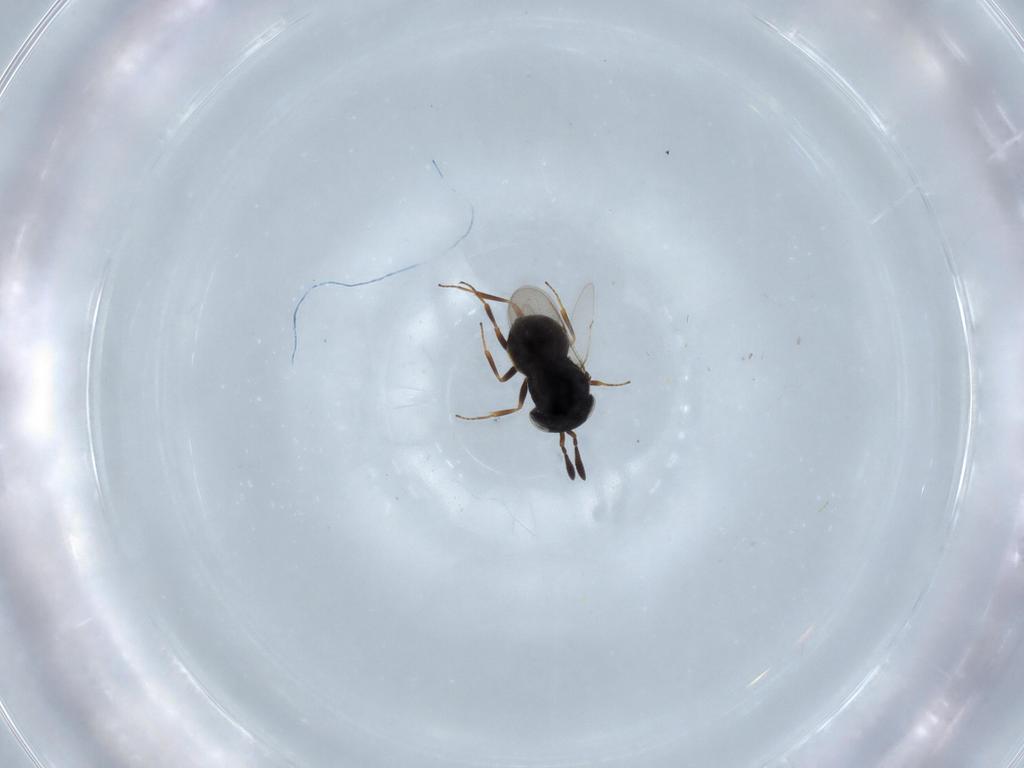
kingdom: Animalia
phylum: Arthropoda
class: Insecta
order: Hymenoptera
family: Scelionidae
